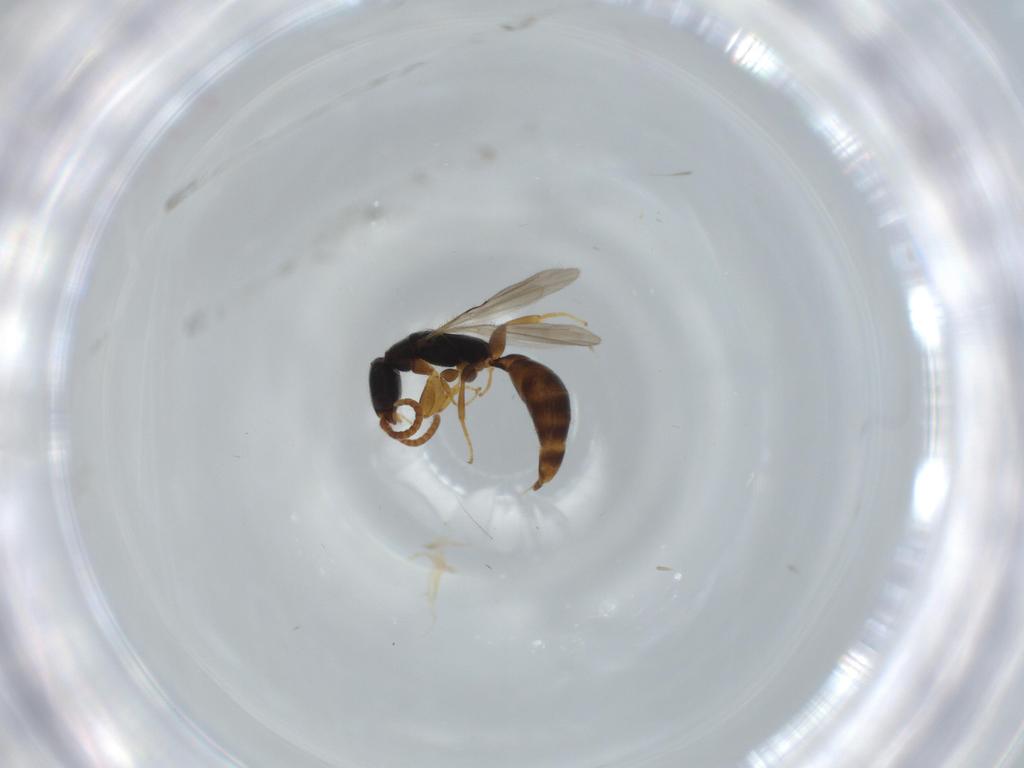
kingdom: Animalia
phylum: Arthropoda
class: Insecta
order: Hymenoptera
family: Bethylidae
